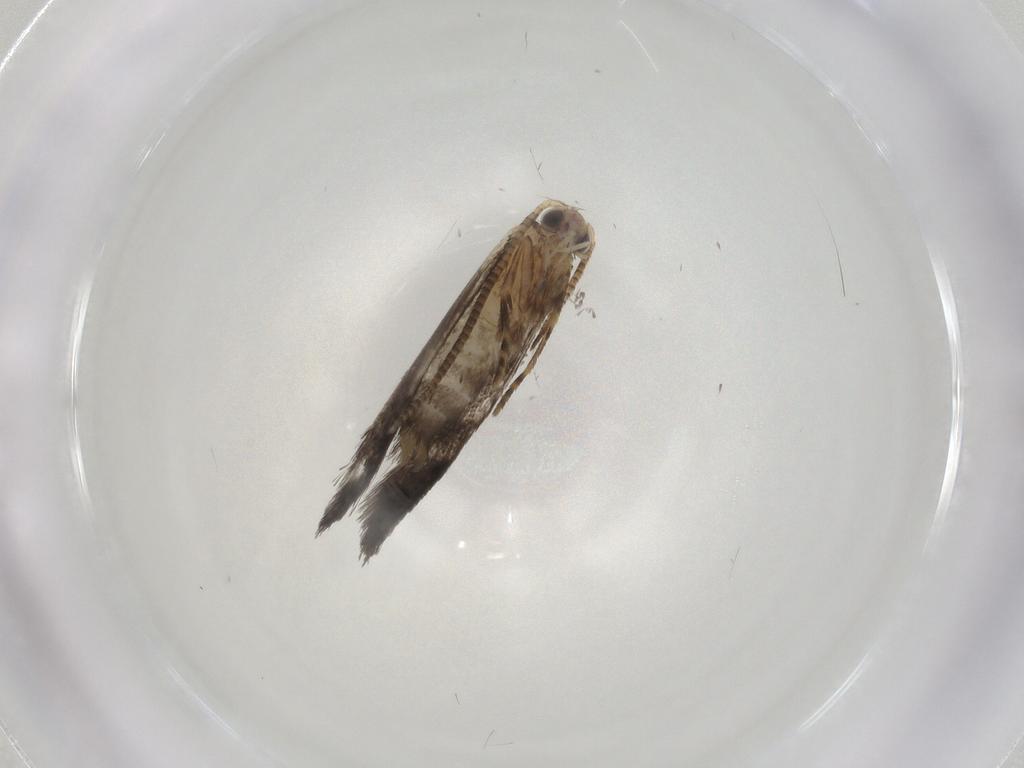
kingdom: Animalia
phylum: Arthropoda
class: Insecta
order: Lepidoptera
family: Tineidae
